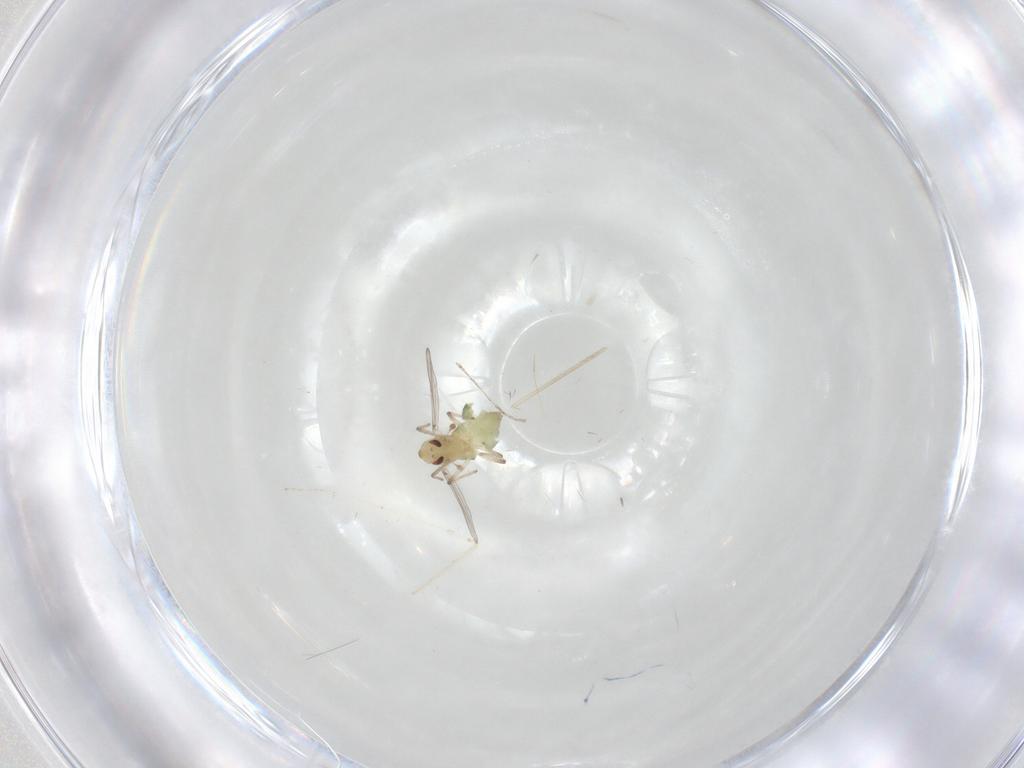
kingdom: Animalia
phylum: Arthropoda
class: Insecta
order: Diptera
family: Chironomidae
